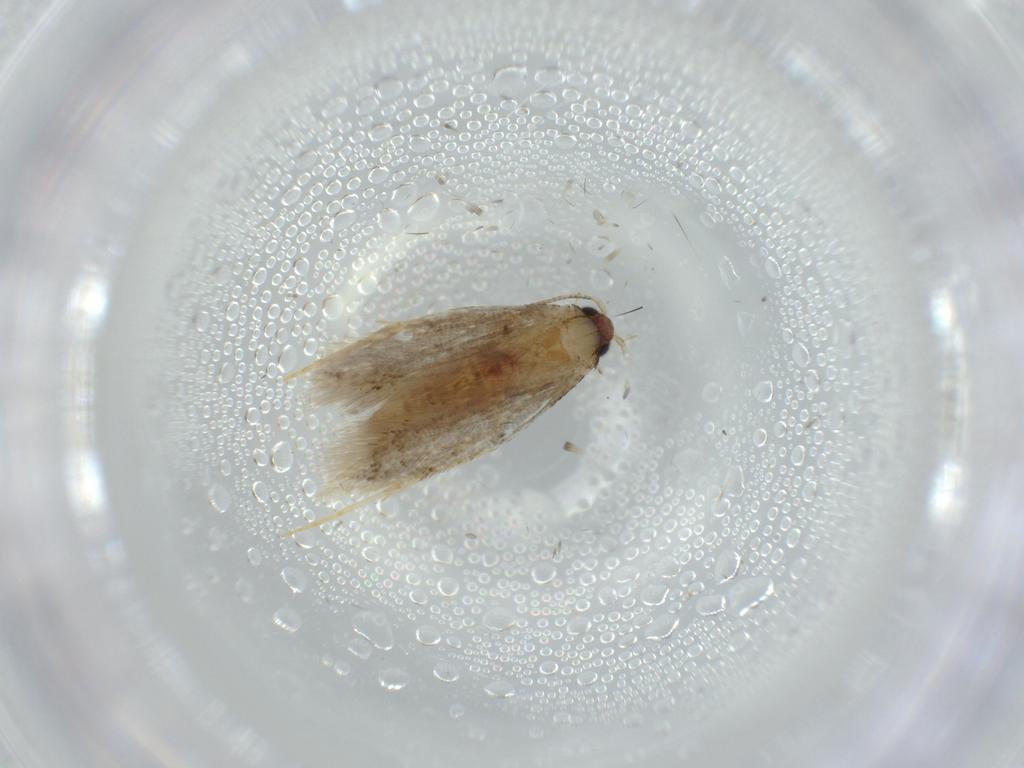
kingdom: Animalia
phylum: Arthropoda
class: Insecta
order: Lepidoptera
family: Tineidae
